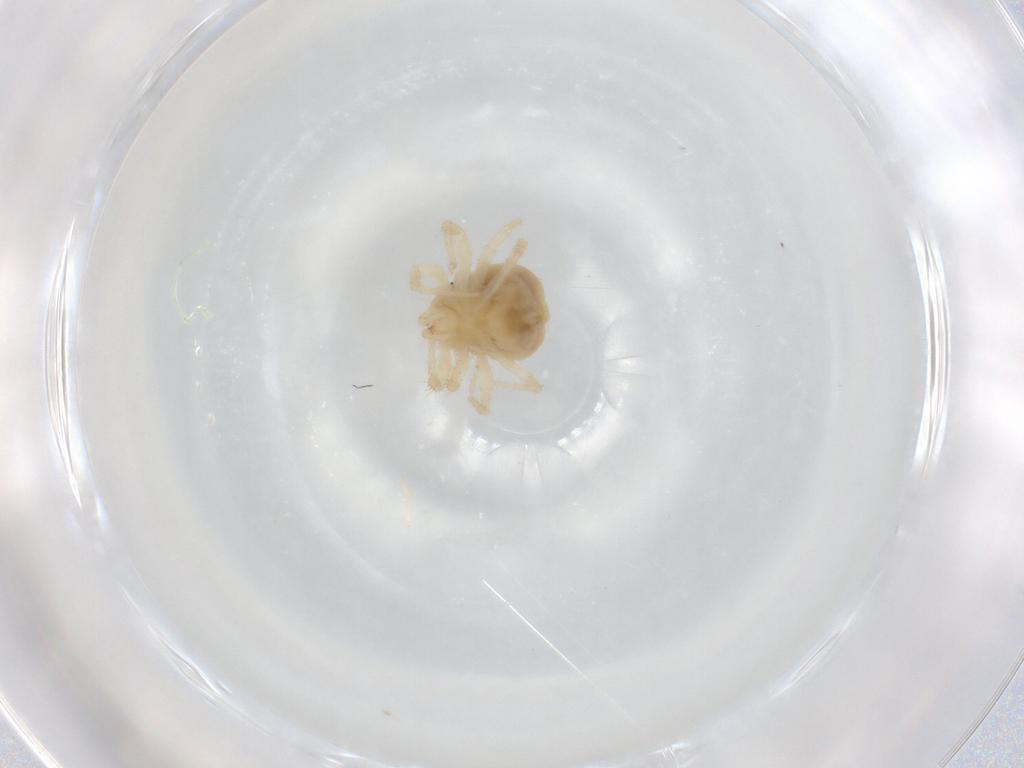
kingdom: Animalia
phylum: Arthropoda
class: Arachnida
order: Trombidiformes
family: Anystidae
